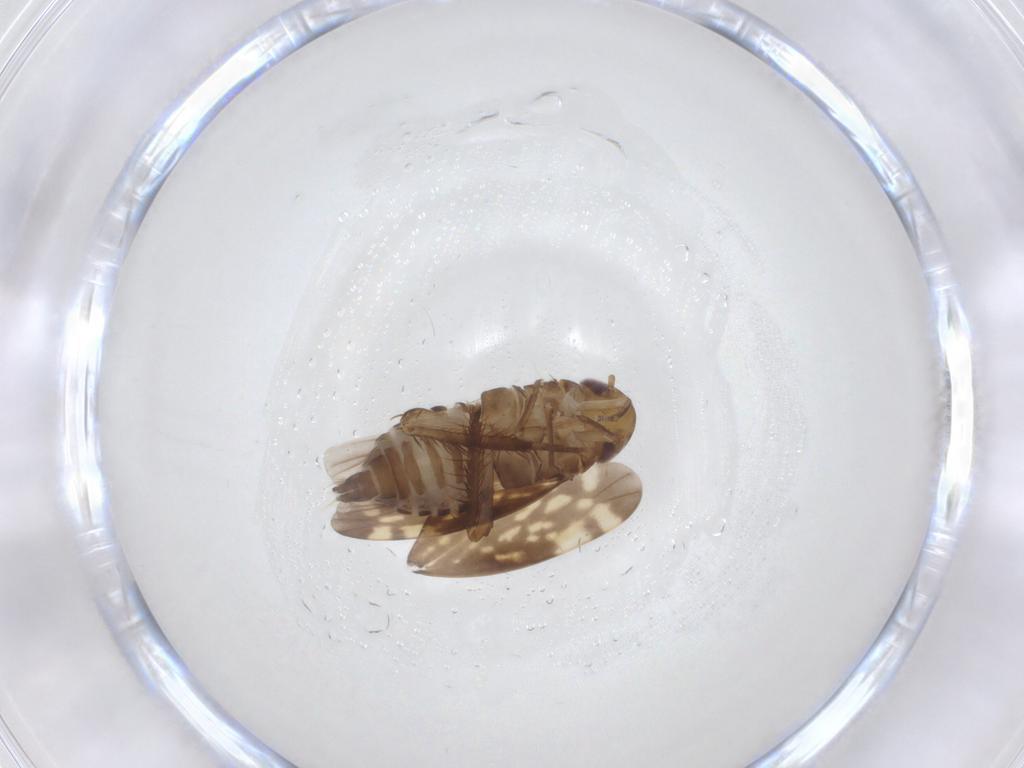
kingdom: Animalia
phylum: Arthropoda
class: Insecta
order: Hemiptera
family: Cicadellidae
